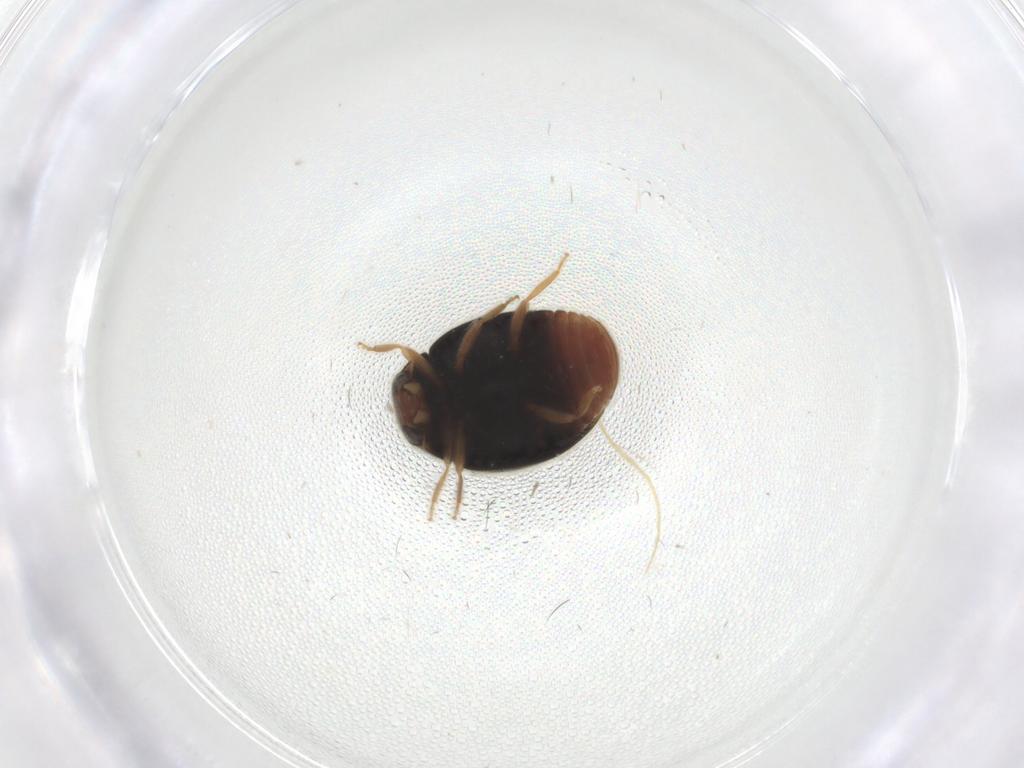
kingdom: Animalia
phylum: Arthropoda
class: Insecta
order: Coleoptera
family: Coccinellidae
